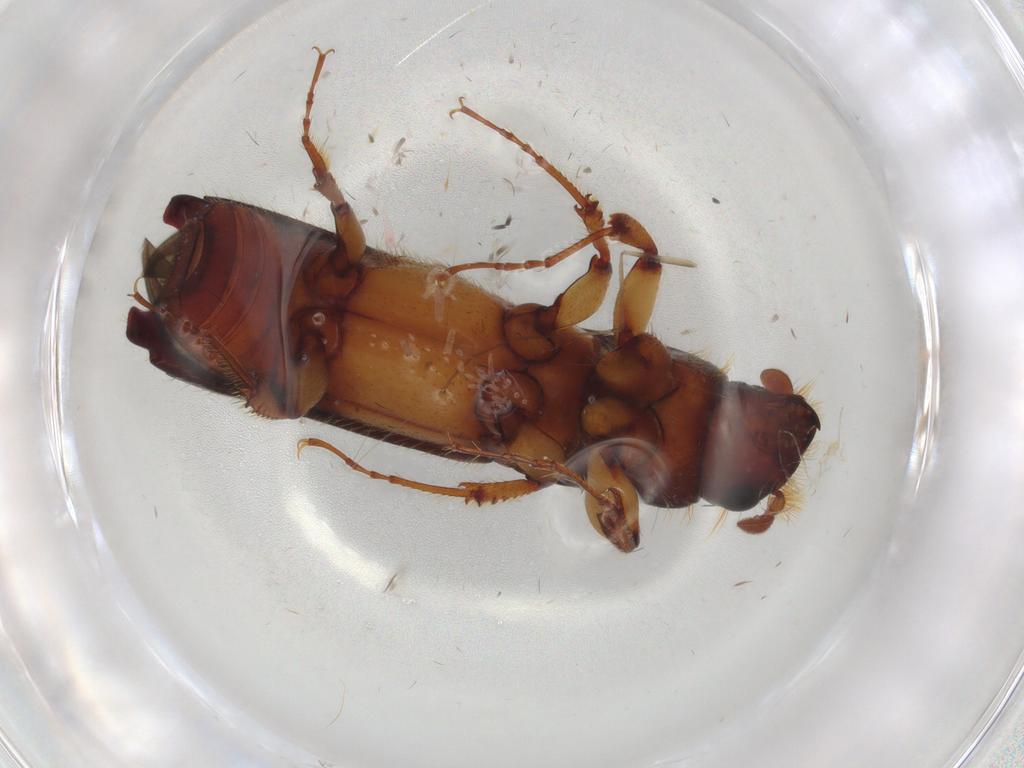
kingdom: Animalia
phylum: Arthropoda
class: Insecta
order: Coleoptera
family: Curculionidae
